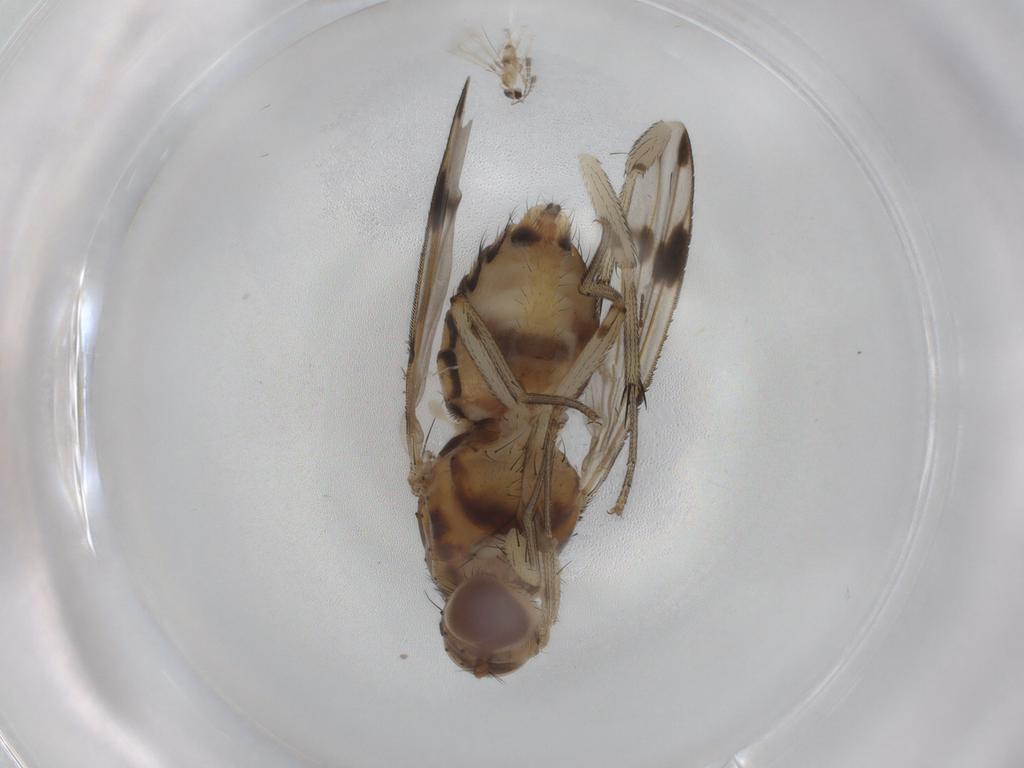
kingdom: Animalia
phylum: Arthropoda
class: Insecta
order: Diptera
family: Lauxaniidae
